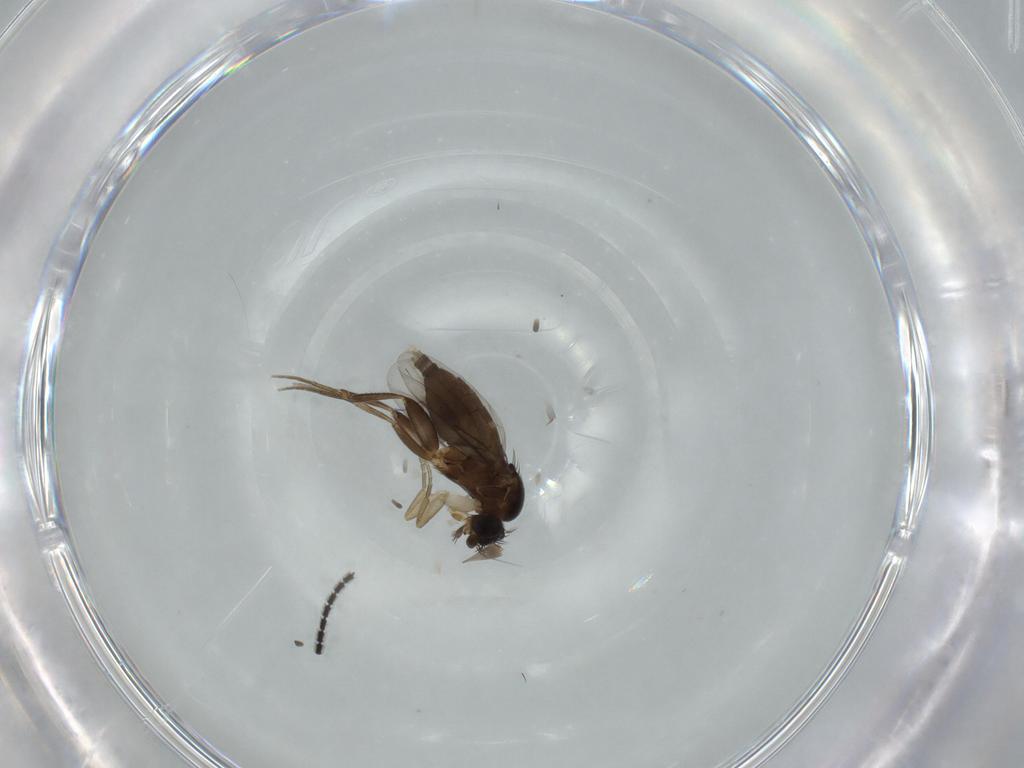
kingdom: Animalia
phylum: Arthropoda
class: Insecta
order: Diptera
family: Phoridae
